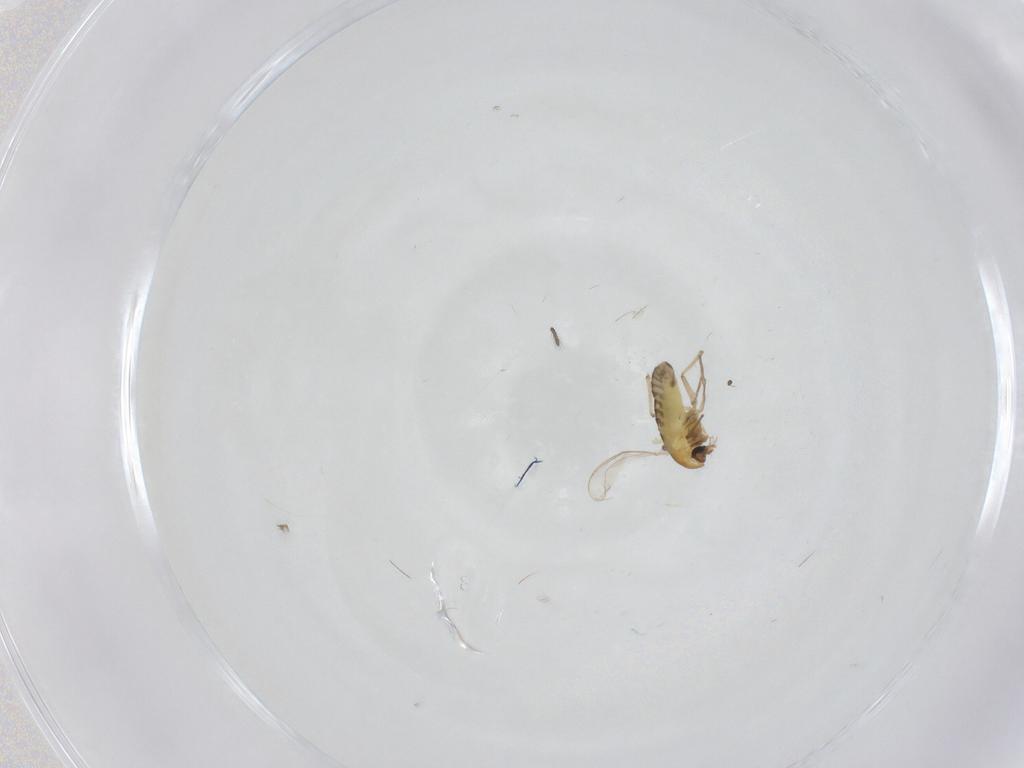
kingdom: Animalia
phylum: Arthropoda
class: Insecta
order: Diptera
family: Chironomidae
